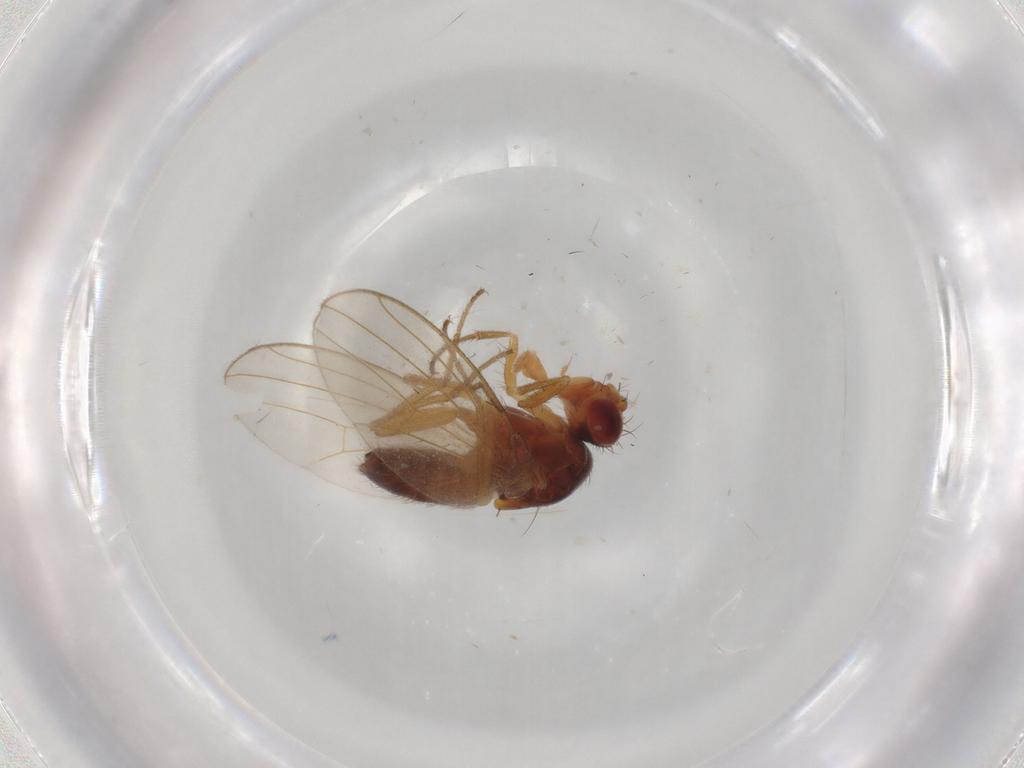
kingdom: Animalia
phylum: Arthropoda
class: Insecta
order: Diptera
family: Drosophilidae
